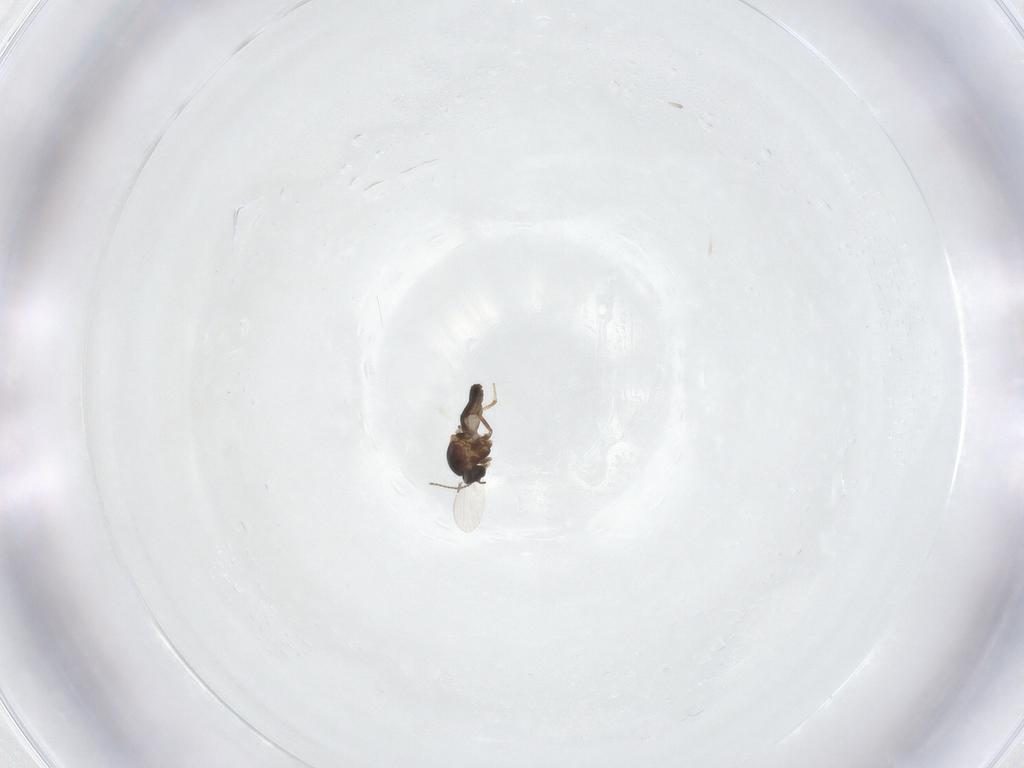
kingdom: Animalia
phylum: Arthropoda
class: Insecta
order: Diptera
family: Ceratopogonidae
